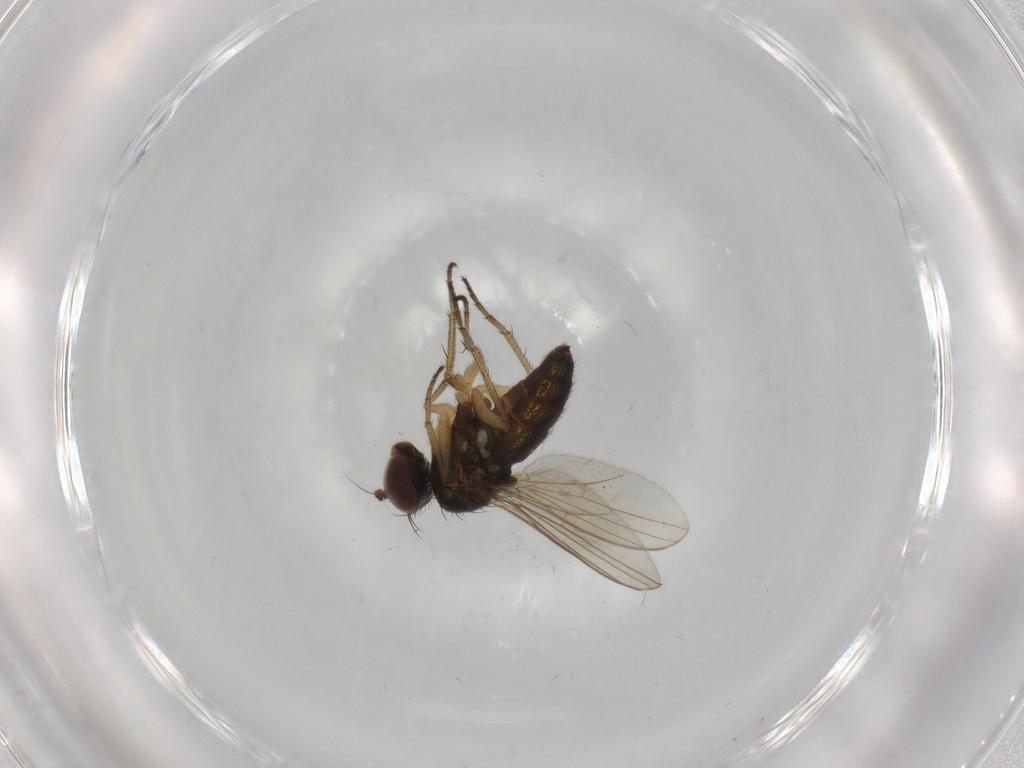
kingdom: Animalia
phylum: Arthropoda
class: Insecta
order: Diptera
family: Dolichopodidae
